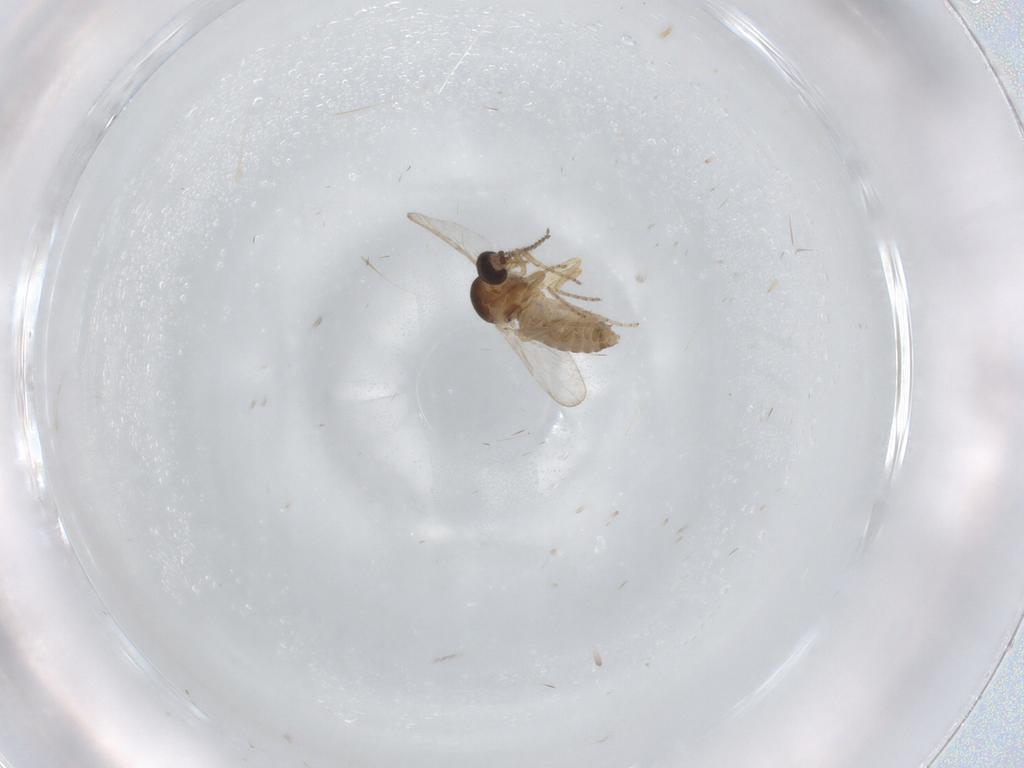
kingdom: Animalia
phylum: Arthropoda
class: Insecta
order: Diptera
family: Ceratopogonidae
